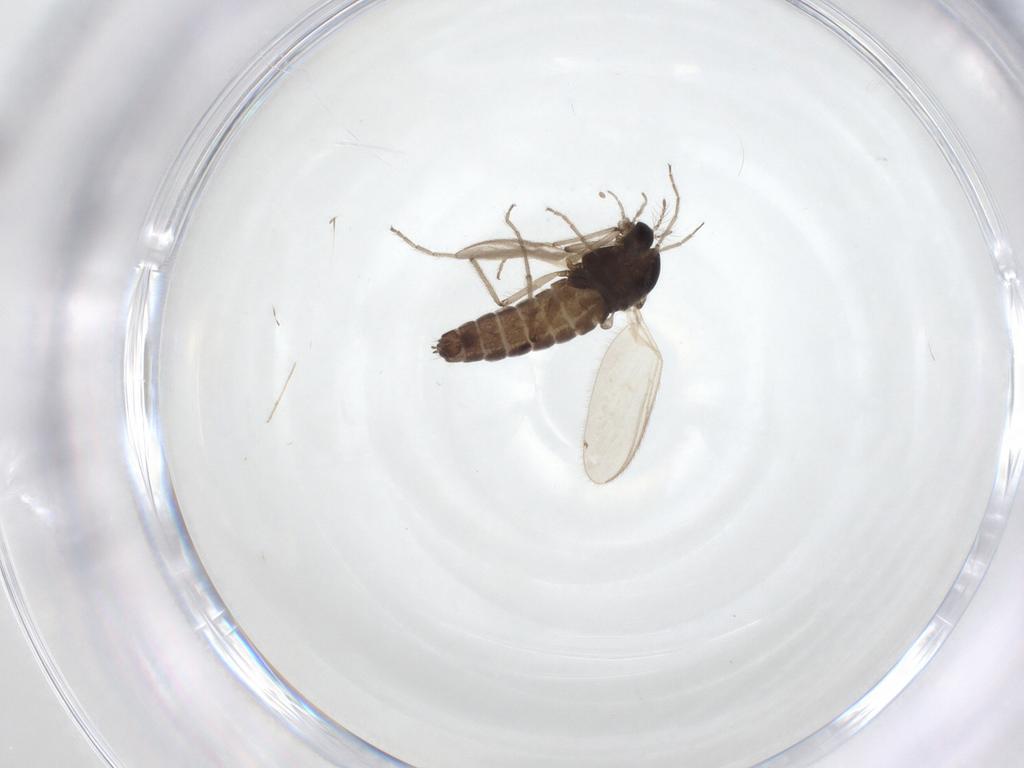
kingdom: Animalia
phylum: Arthropoda
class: Insecta
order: Diptera
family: Chironomidae
